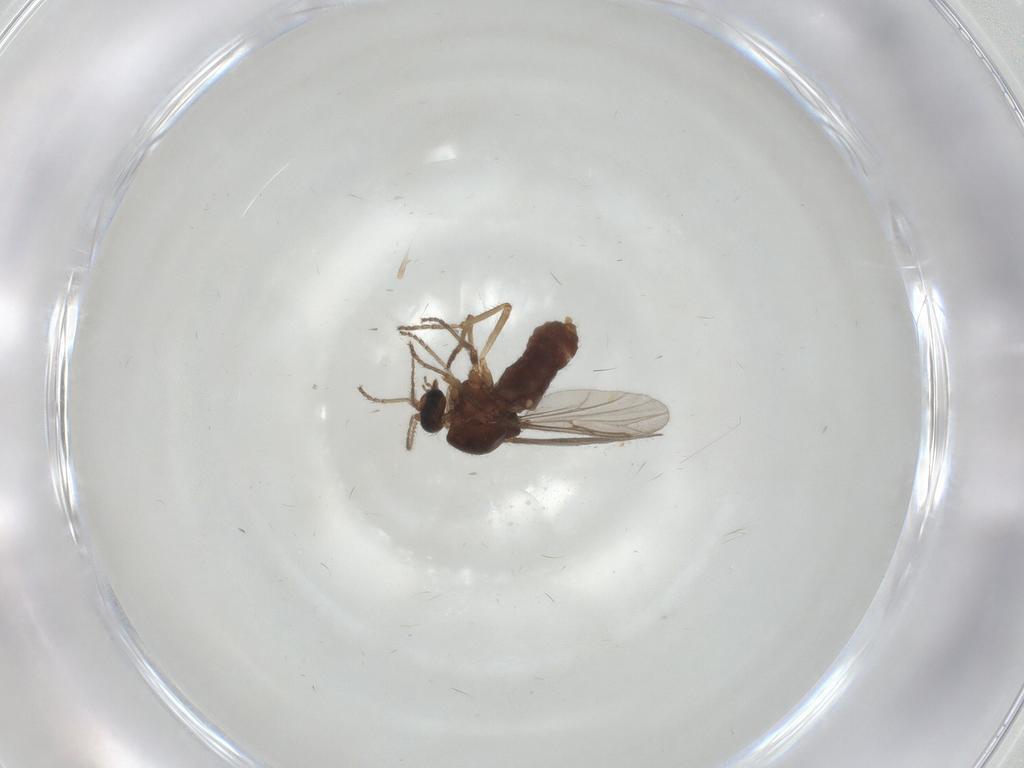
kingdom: Animalia
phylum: Arthropoda
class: Insecta
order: Diptera
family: Ceratopogonidae
